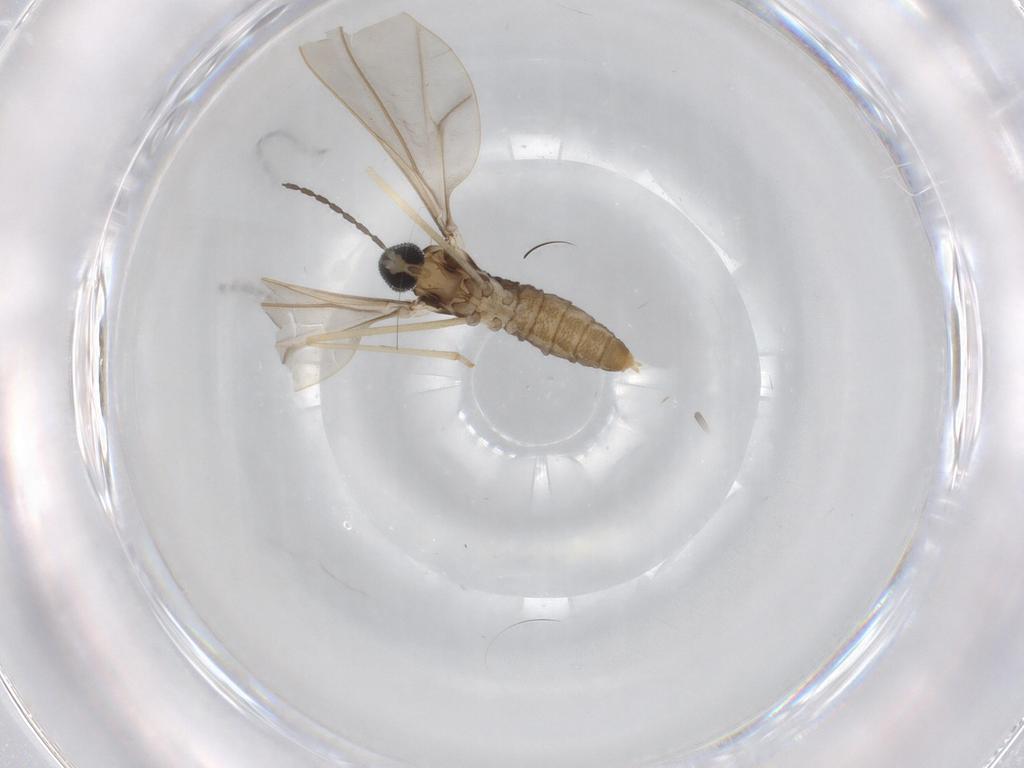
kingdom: Animalia
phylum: Arthropoda
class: Insecta
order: Diptera
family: Cecidomyiidae
